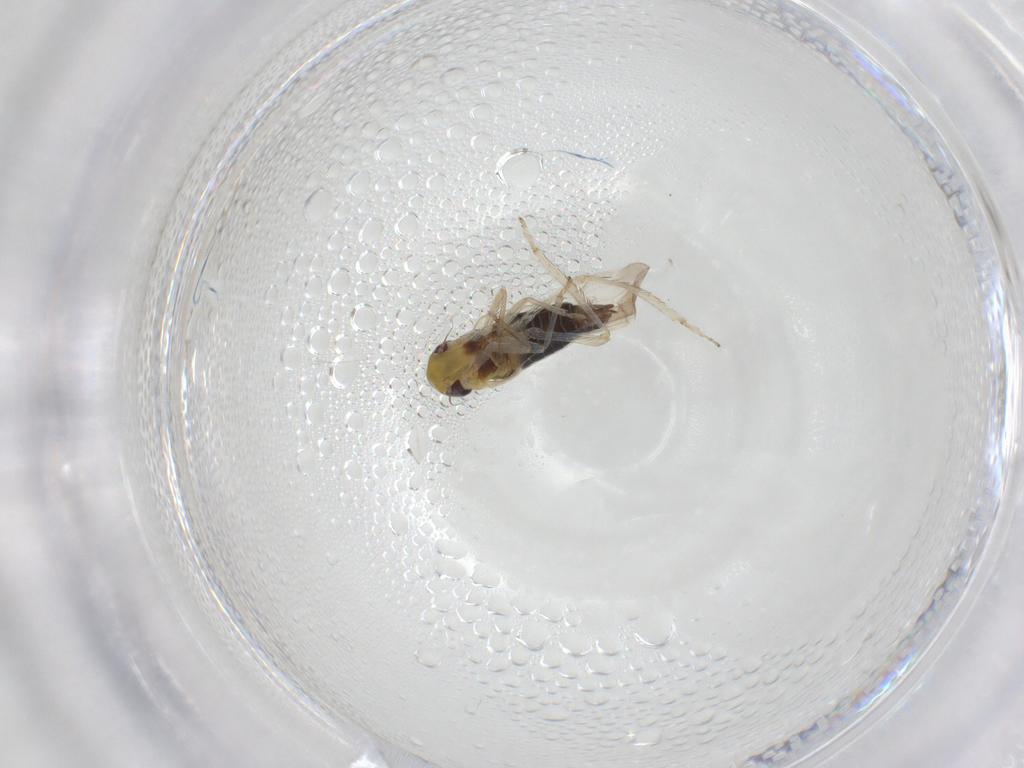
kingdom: Animalia
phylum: Arthropoda
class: Insecta
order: Hemiptera
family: Cicadellidae
